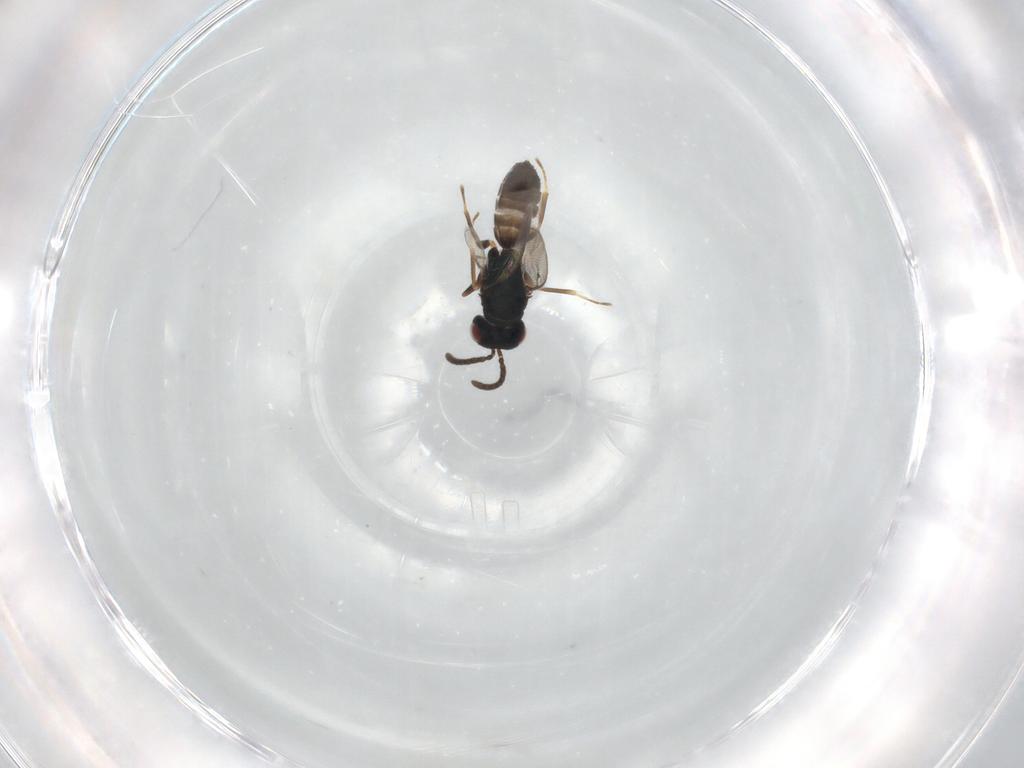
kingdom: Animalia
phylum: Arthropoda
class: Insecta
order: Hymenoptera
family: Pteromalidae
